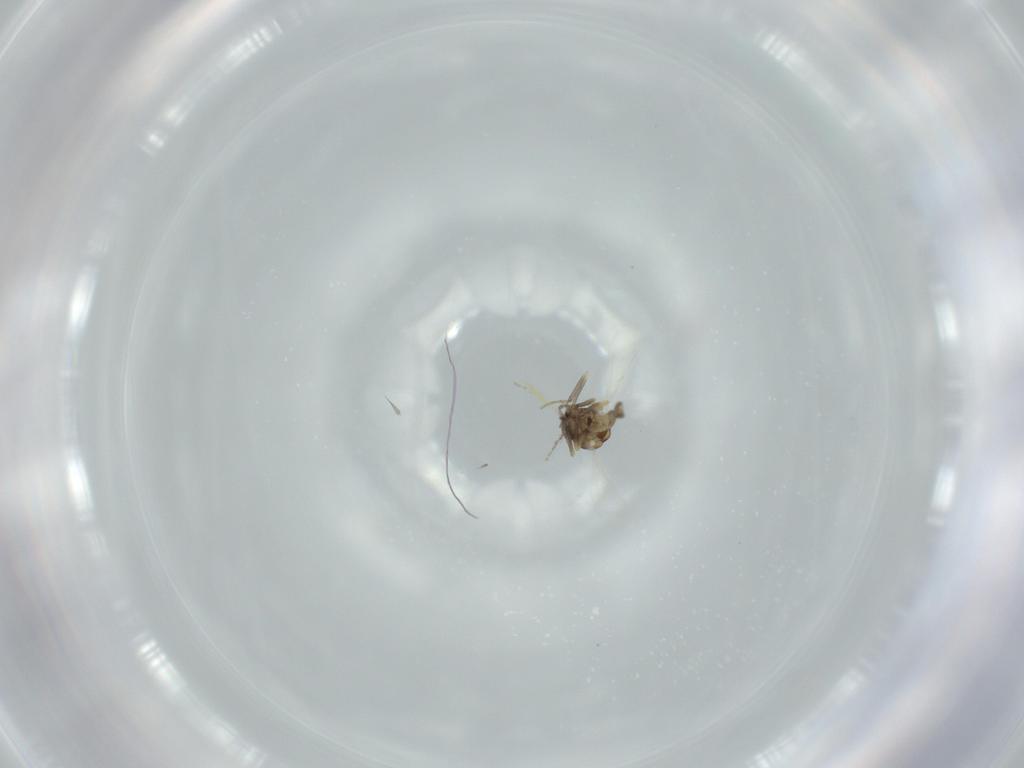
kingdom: Animalia
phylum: Arthropoda
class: Insecta
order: Diptera
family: Ceratopogonidae
